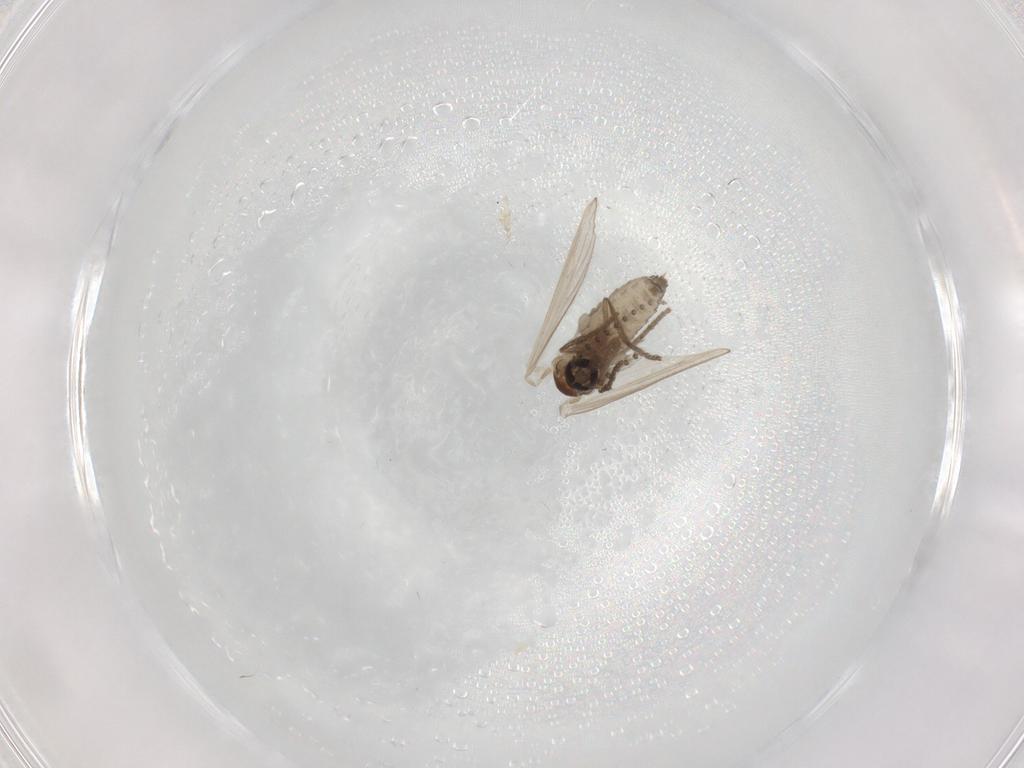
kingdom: Animalia
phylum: Arthropoda
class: Insecta
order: Diptera
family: Psychodidae
